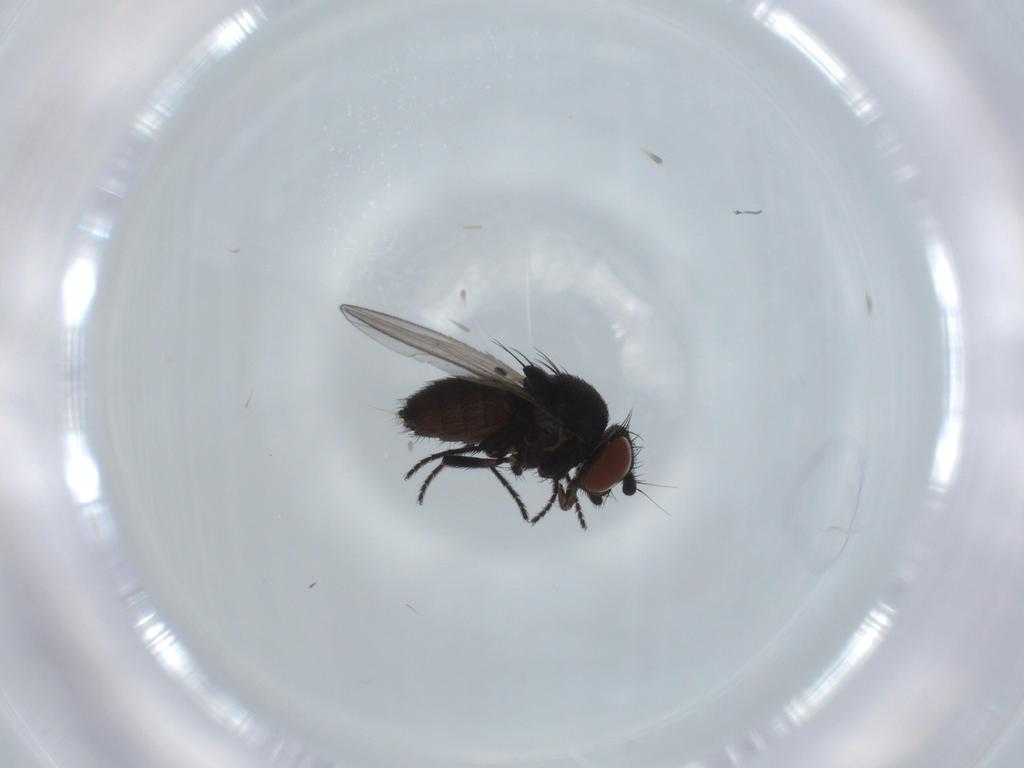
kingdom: Animalia
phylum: Arthropoda
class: Insecta
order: Diptera
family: Milichiidae
